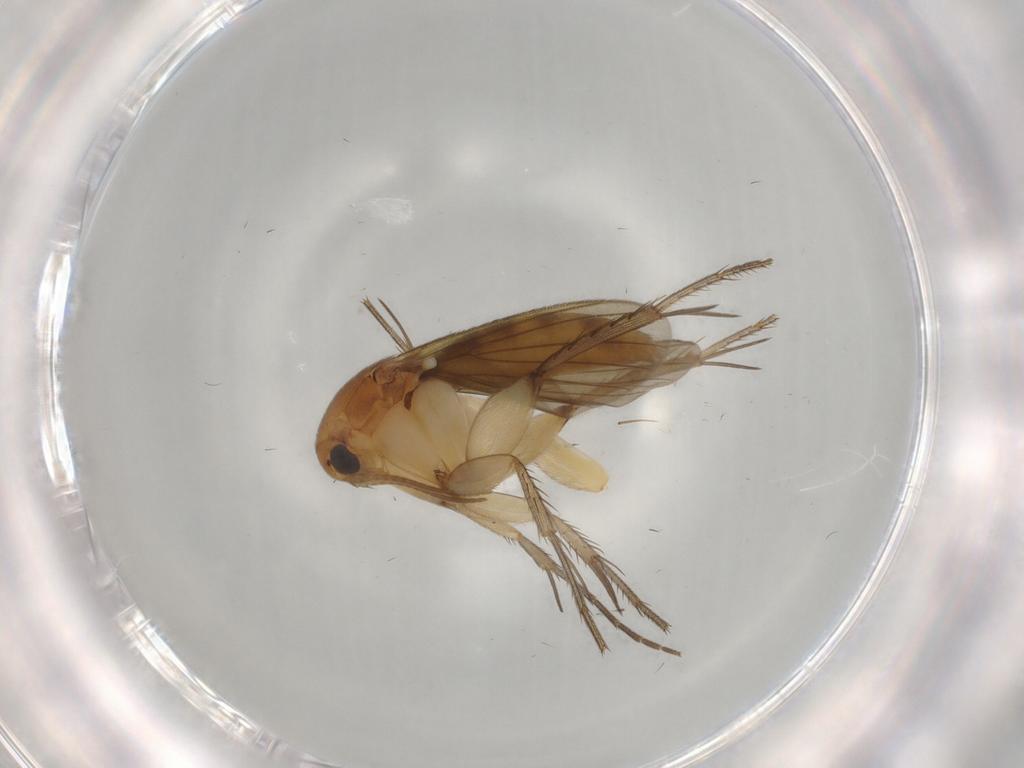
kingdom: Animalia
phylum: Arthropoda
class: Insecta
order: Diptera
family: Mycetophilidae
